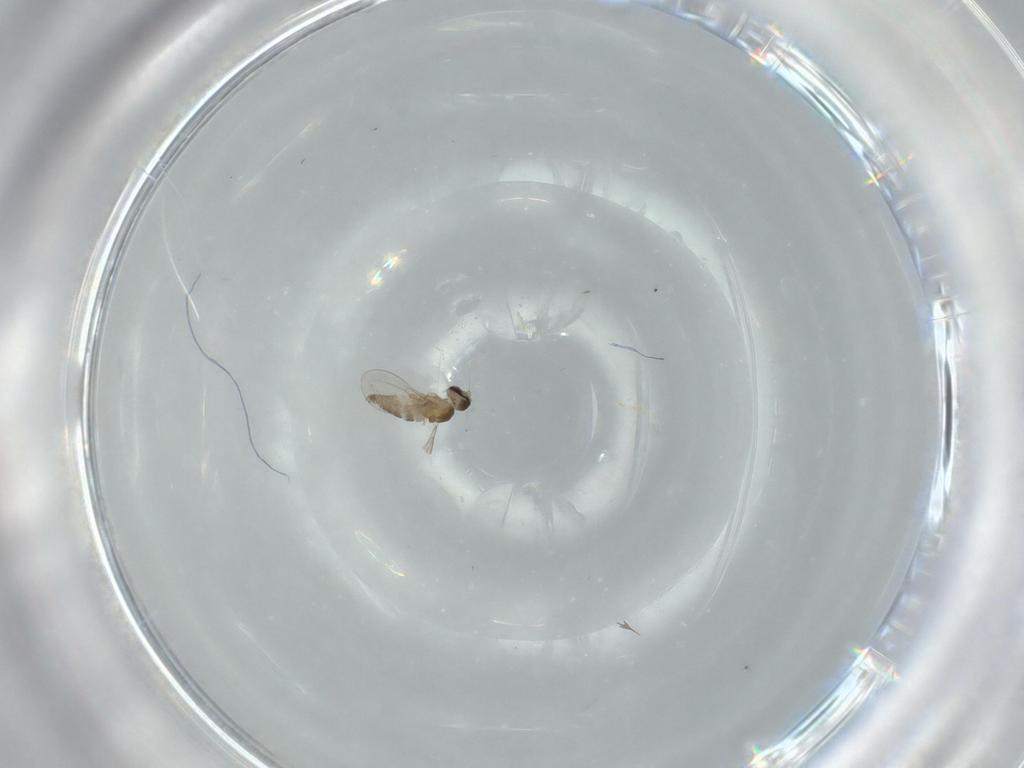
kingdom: Animalia
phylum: Arthropoda
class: Insecta
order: Diptera
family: Cecidomyiidae
